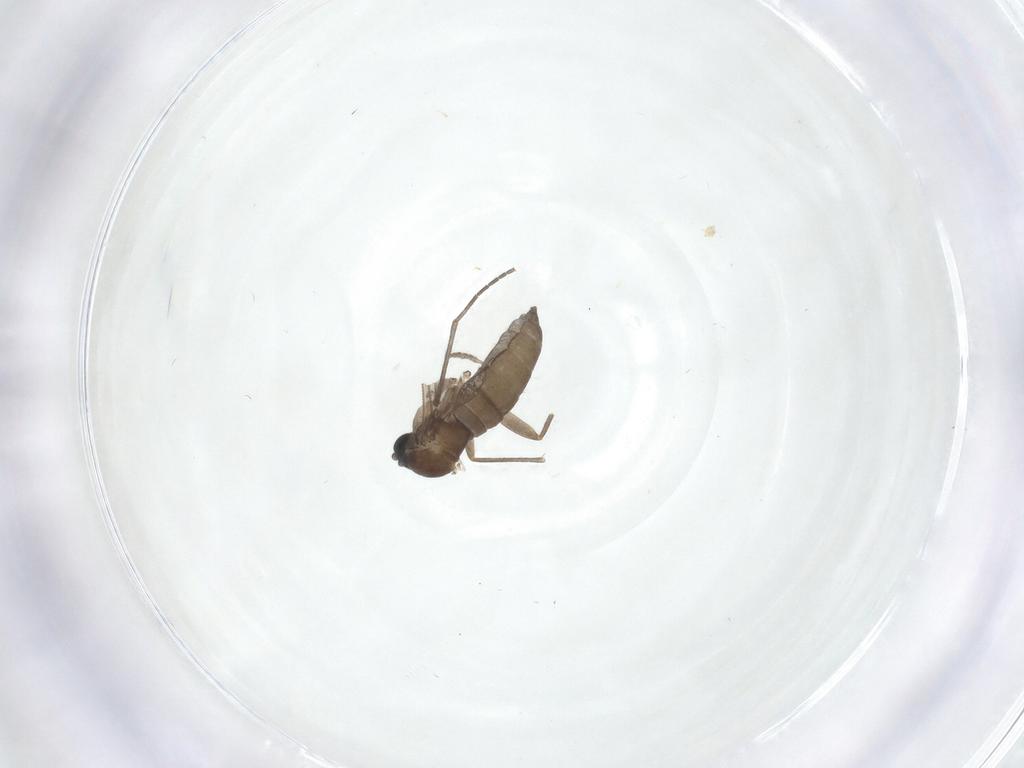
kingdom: Animalia
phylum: Arthropoda
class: Insecta
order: Diptera
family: Sciaridae
